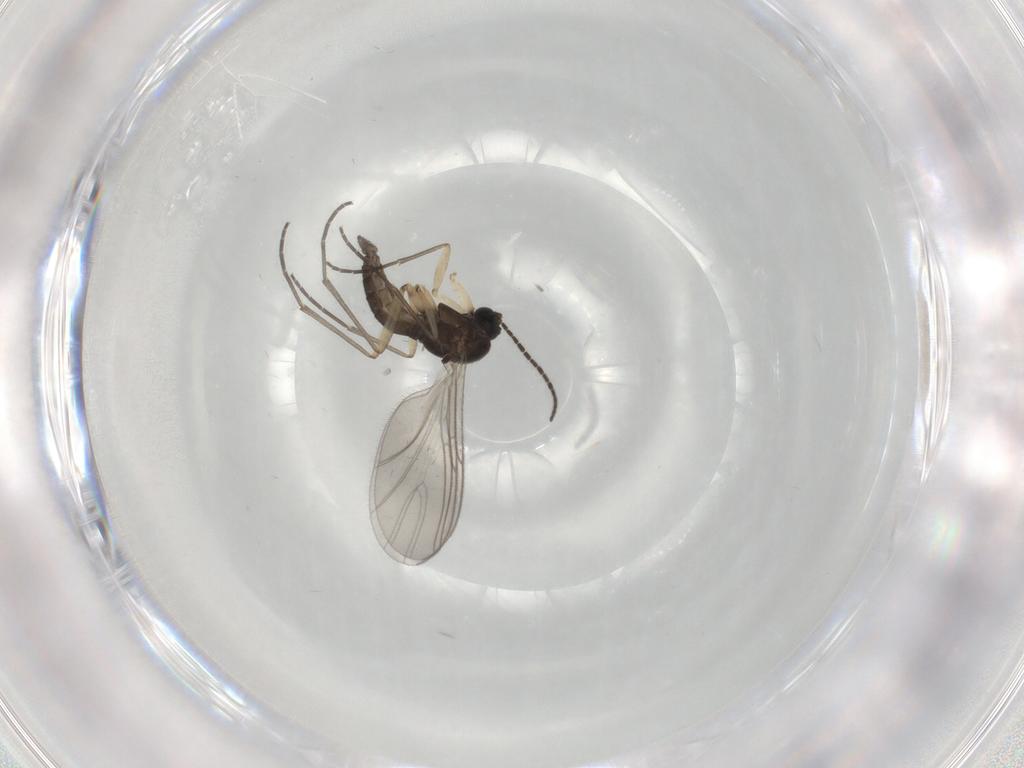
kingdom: Animalia
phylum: Arthropoda
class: Insecta
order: Diptera
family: Sciaridae
